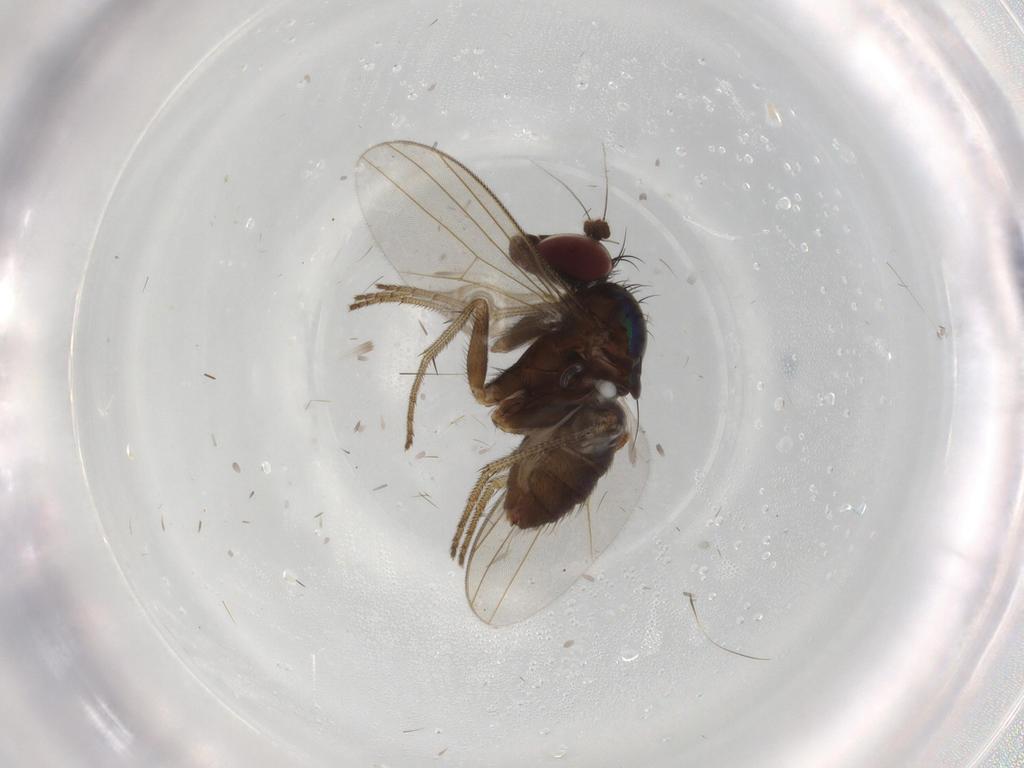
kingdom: Animalia
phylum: Arthropoda
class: Insecta
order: Diptera
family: Dolichopodidae
